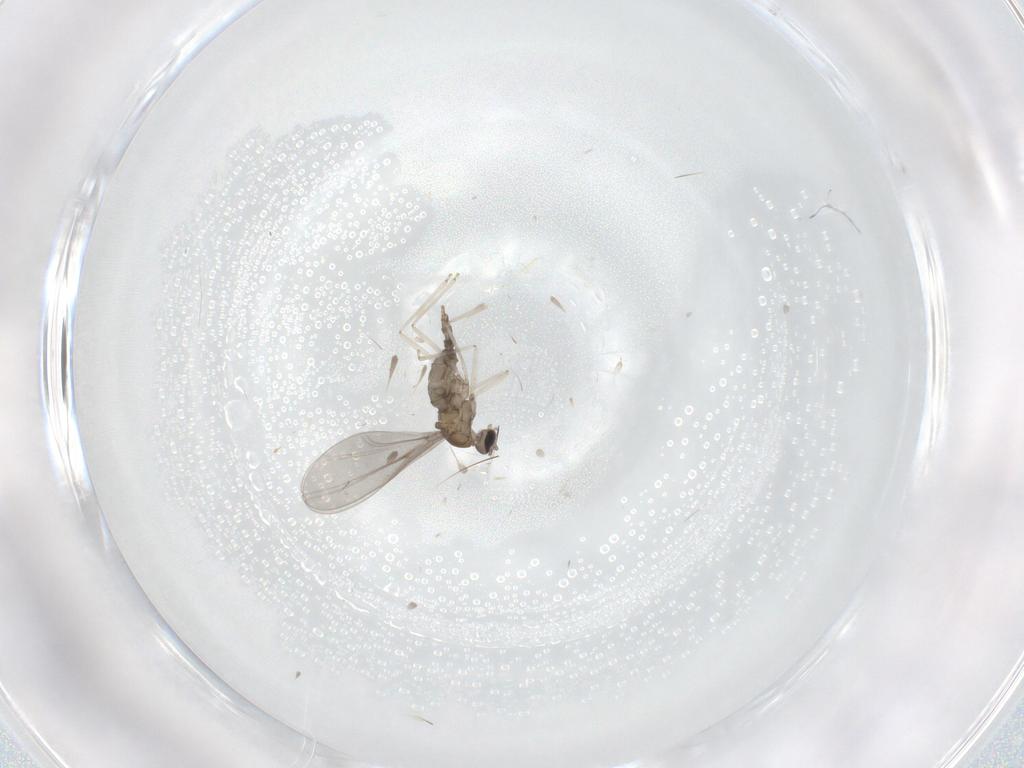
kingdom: Animalia
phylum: Arthropoda
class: Insecta
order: Diptera
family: Cecidomyiidae
